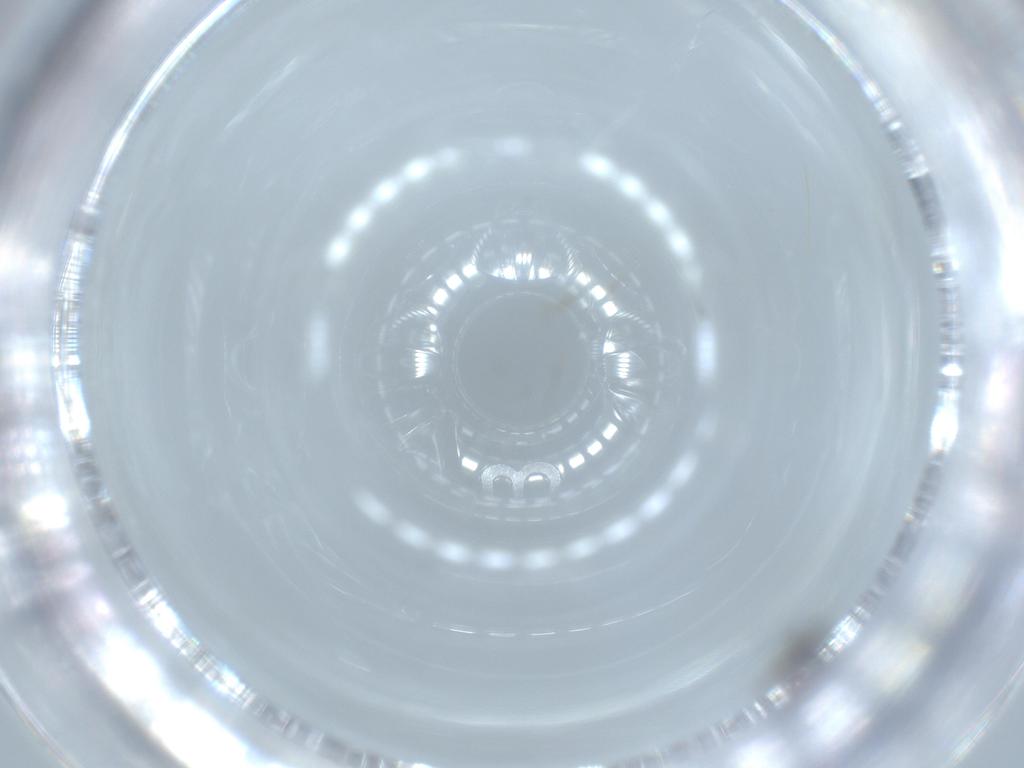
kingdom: Animalia
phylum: Arthropoda
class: Insecta
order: Hymenoptera
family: Scelionidae
